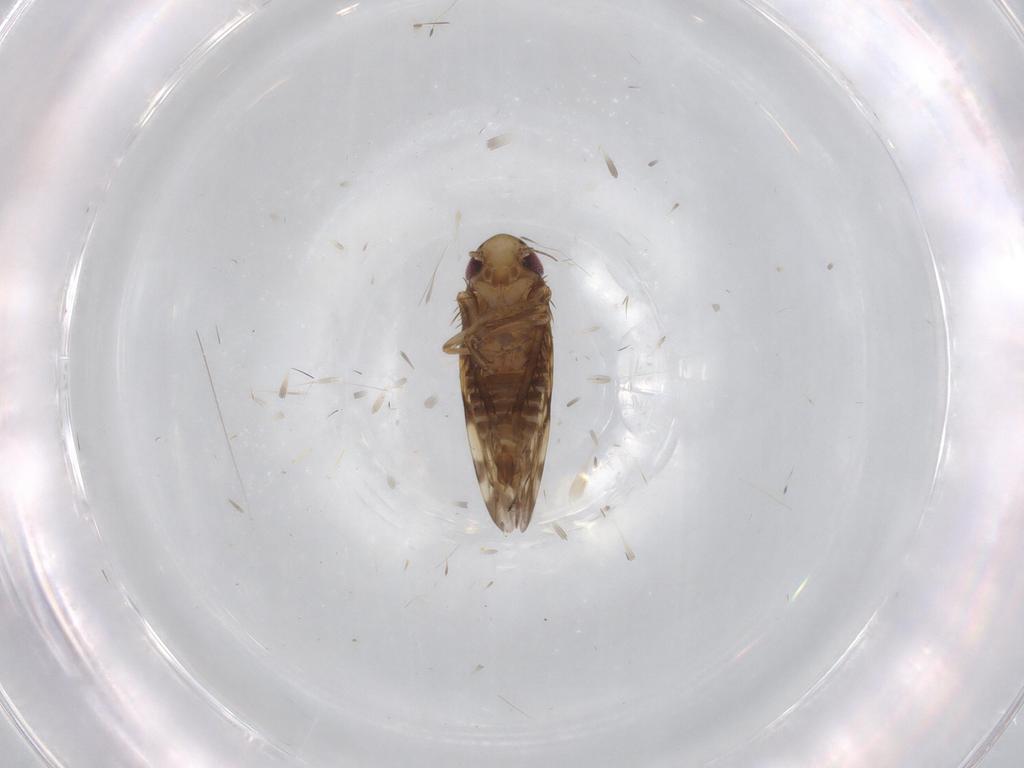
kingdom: Animalia
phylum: Arthropoda
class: Insecta
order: Hemiptera
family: Cicadellidae
